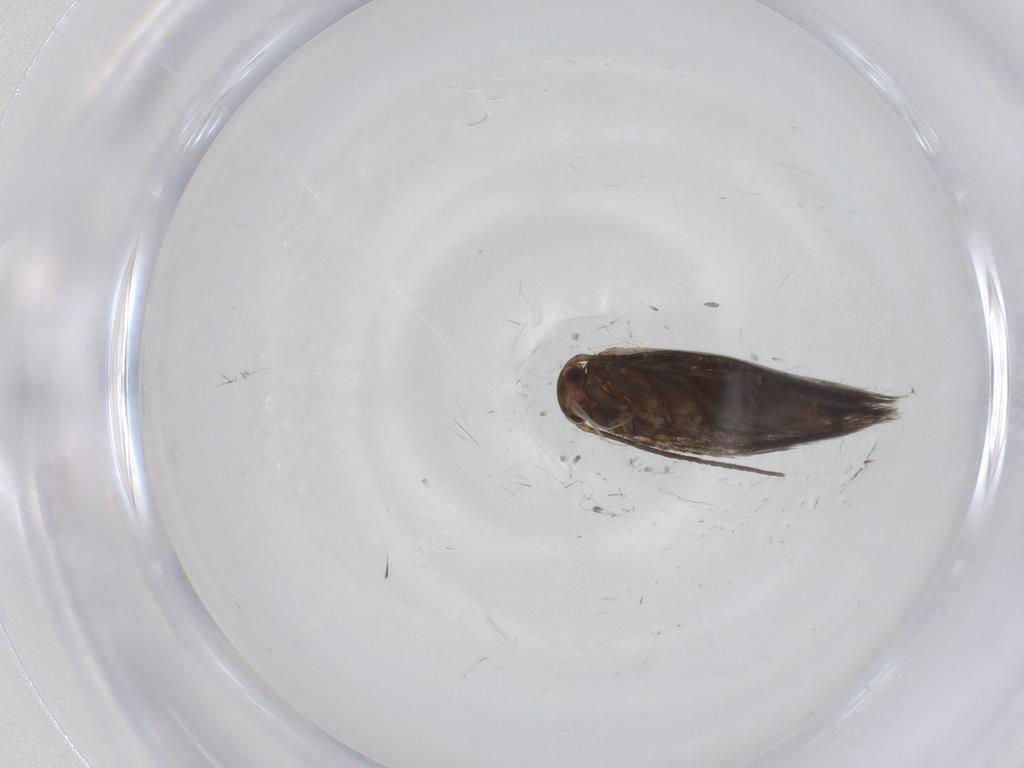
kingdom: Animalia
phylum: Arthropoda
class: Insecta
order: Lepidoptera
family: Elachistidae
